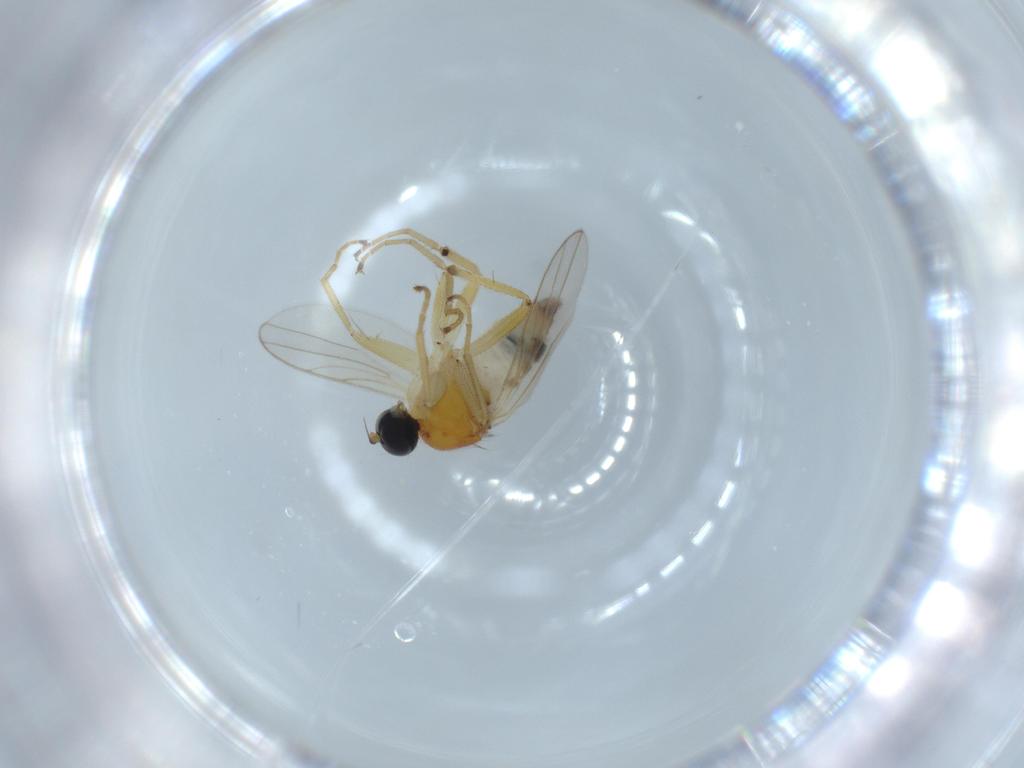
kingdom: Animalia
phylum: Arthropoda
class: Insecta
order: Diptera
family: Hybotidae
